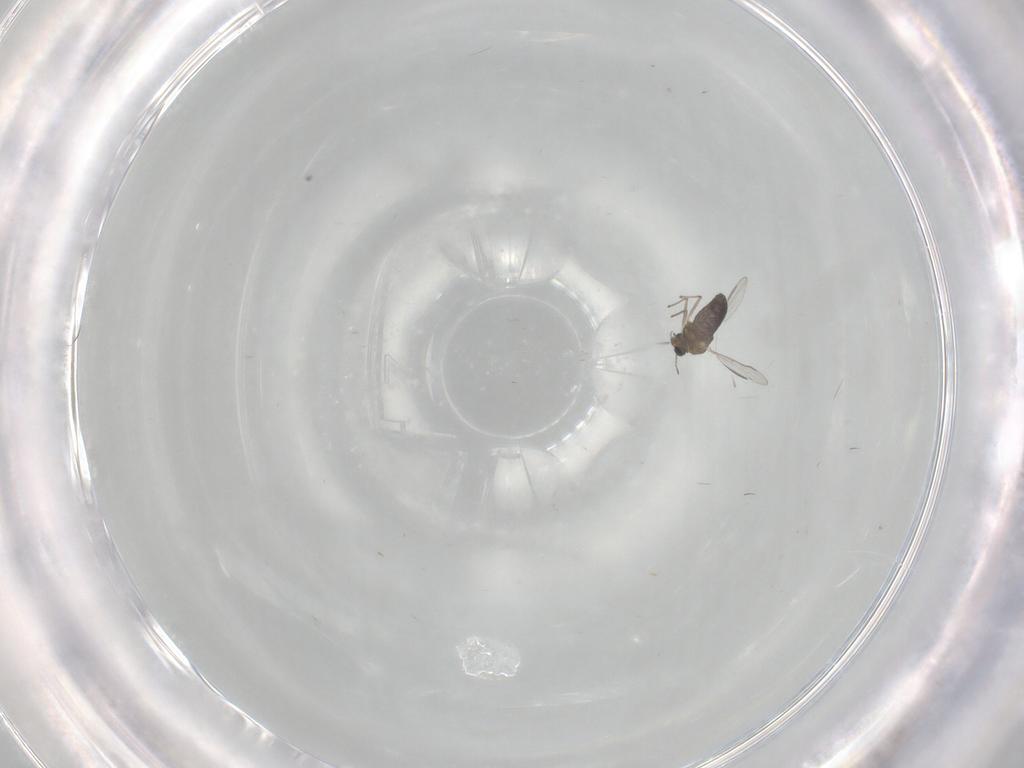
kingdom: Animalia
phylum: Arthropoda
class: Insecta
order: Diptera
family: Chironomidae
